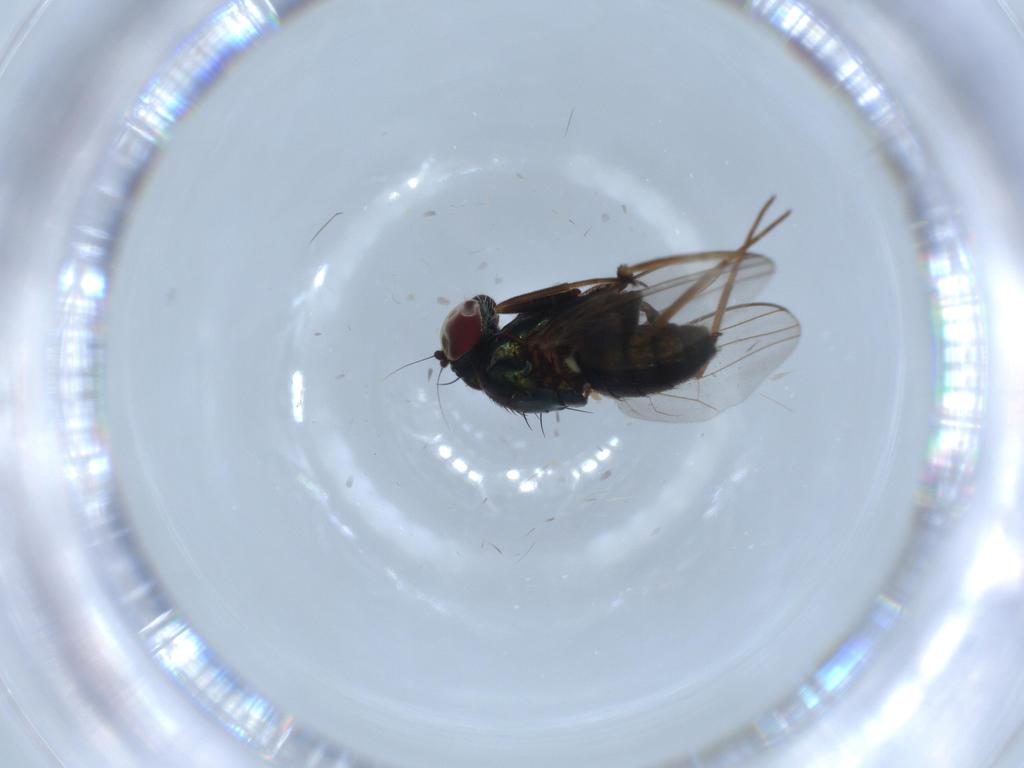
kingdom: Animalia
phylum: Arthropoda
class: Insecta
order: Diptera
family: Dolichopodidae
